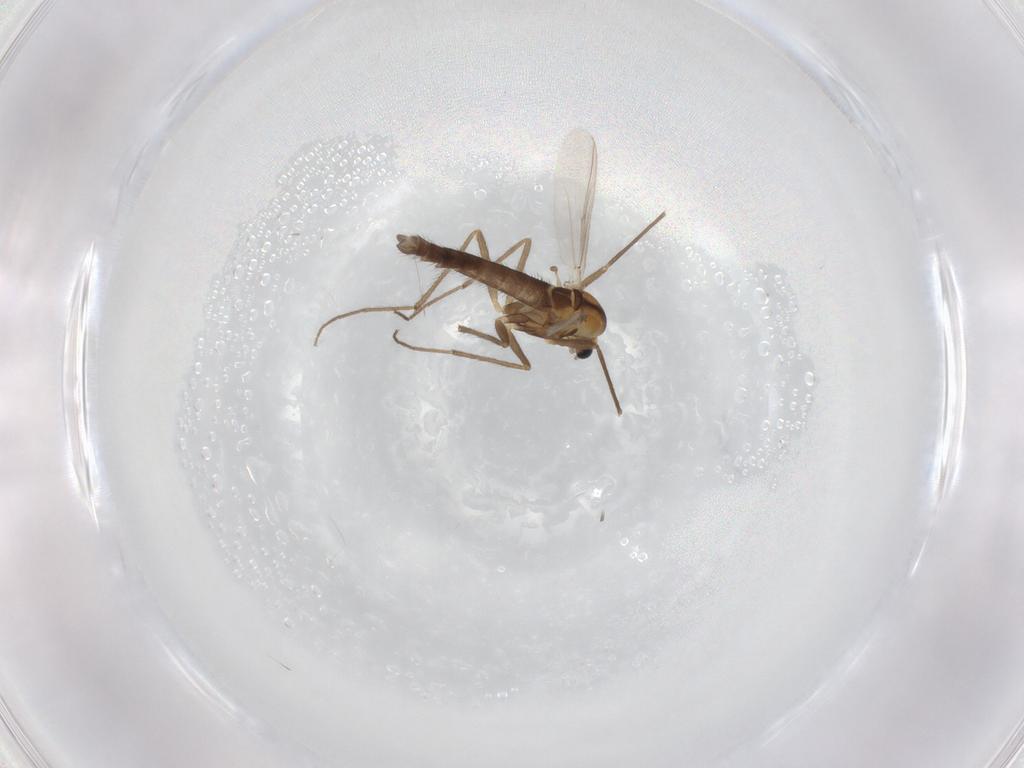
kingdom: Animalia
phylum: Arthropoda
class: Insecta
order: Diptera
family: Chironomidae
